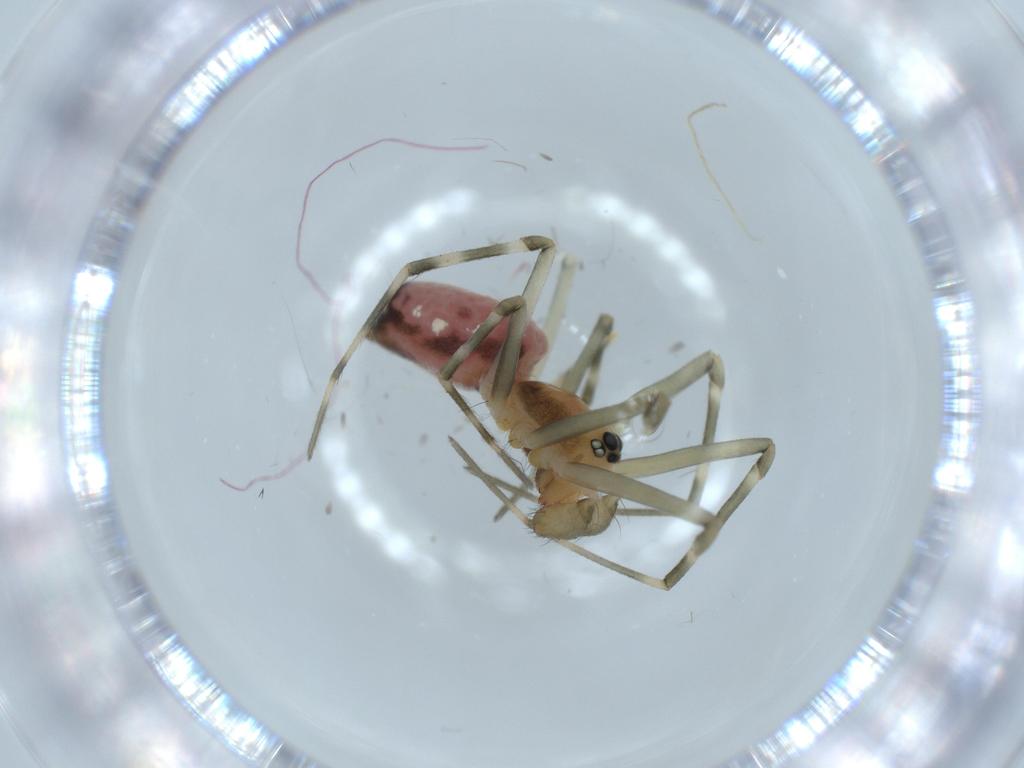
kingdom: Animalia
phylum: Arthropoda
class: Arachnida
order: Araneae
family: Linyphiidae
